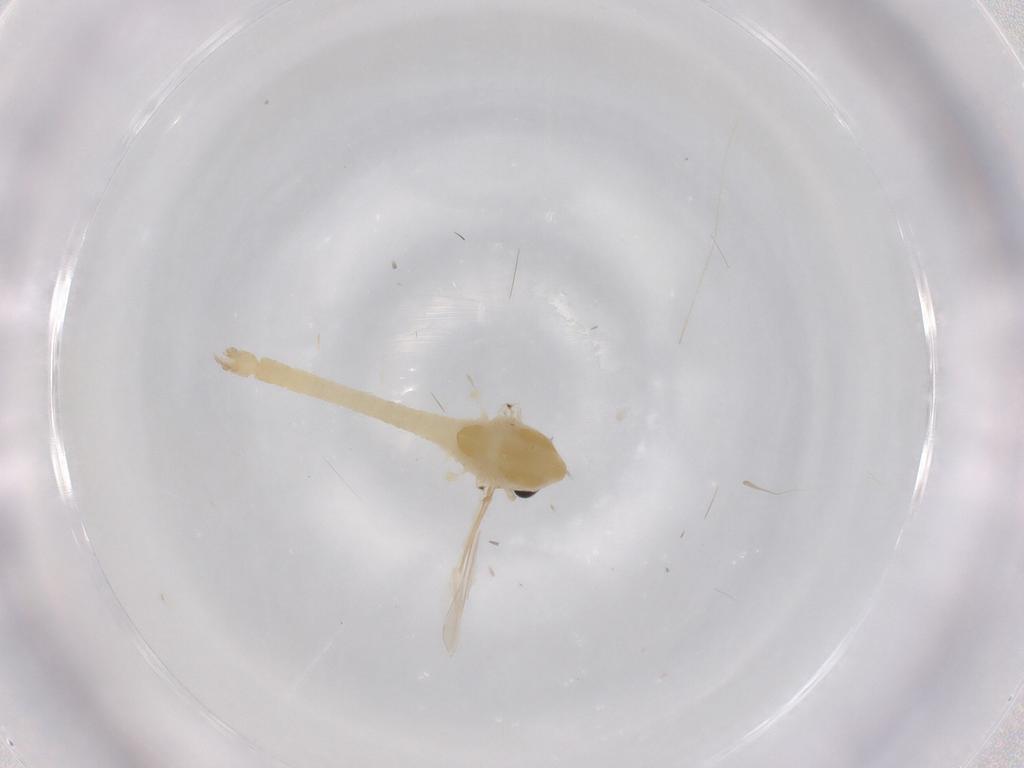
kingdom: Animalia
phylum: Arthropoda
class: Insecta
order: Diptera
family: Chironomidae
